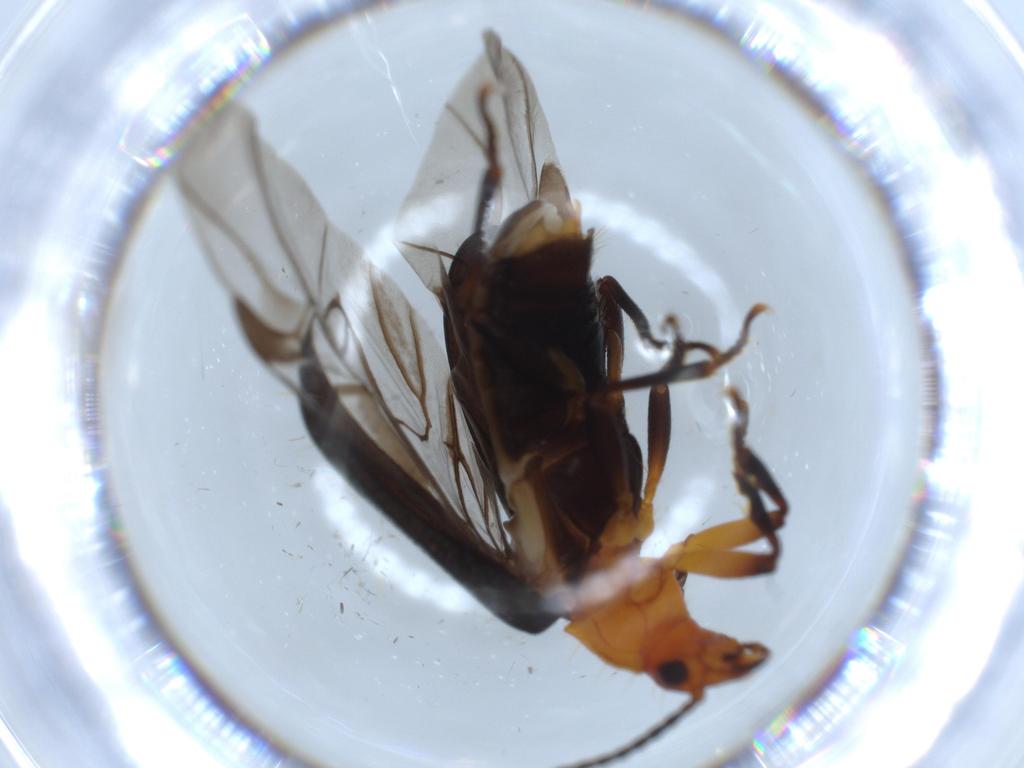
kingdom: Animalia
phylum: Arthropoda
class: Insecta
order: Coleoptera
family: Carabidae
